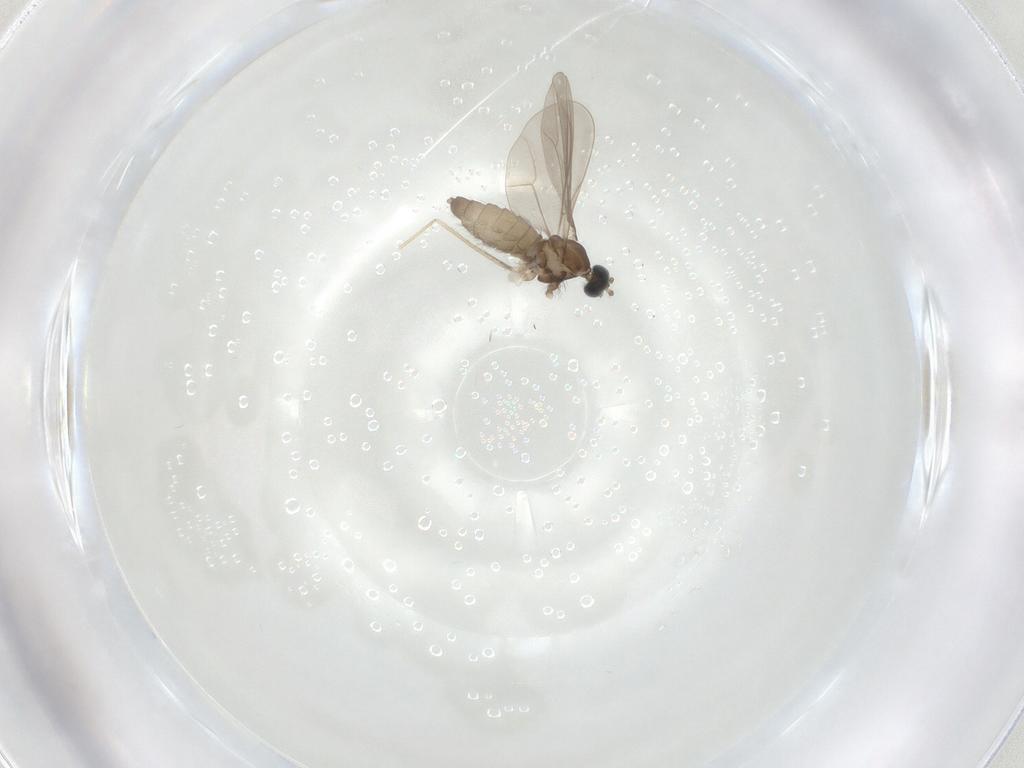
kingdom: Animalia
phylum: Arthropoda
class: Insecta
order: Diptera
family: Cecidomyiidae
